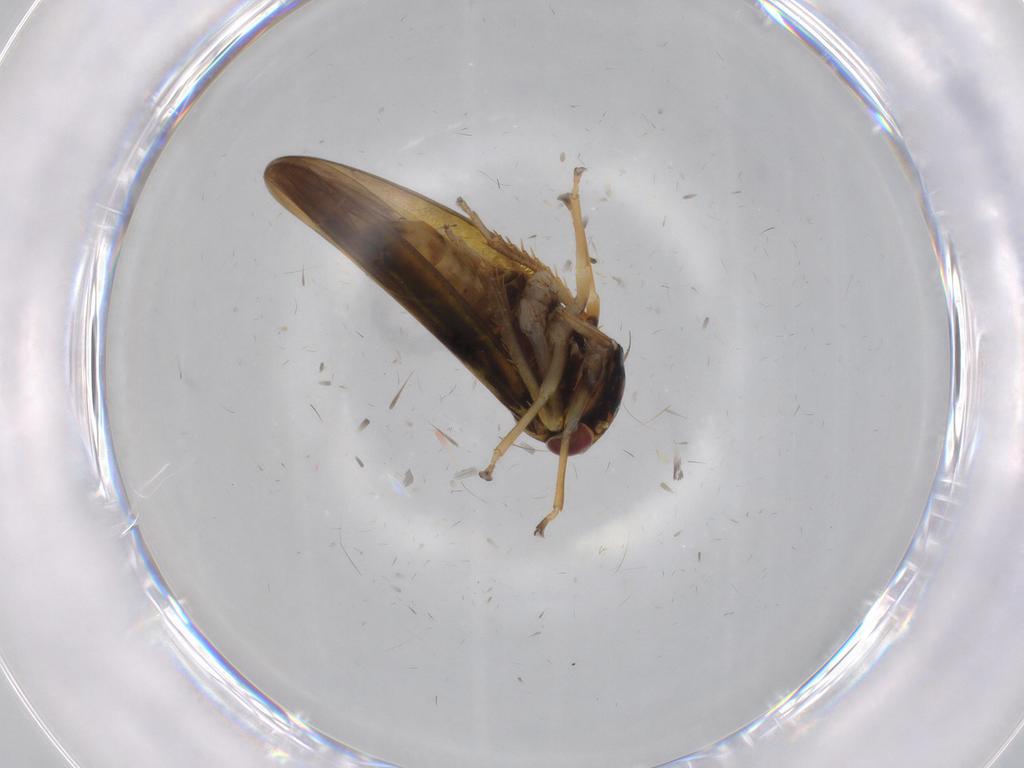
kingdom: Animalia
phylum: Arthropoda
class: Insecta
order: Hemiptera
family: Cicadellidae
